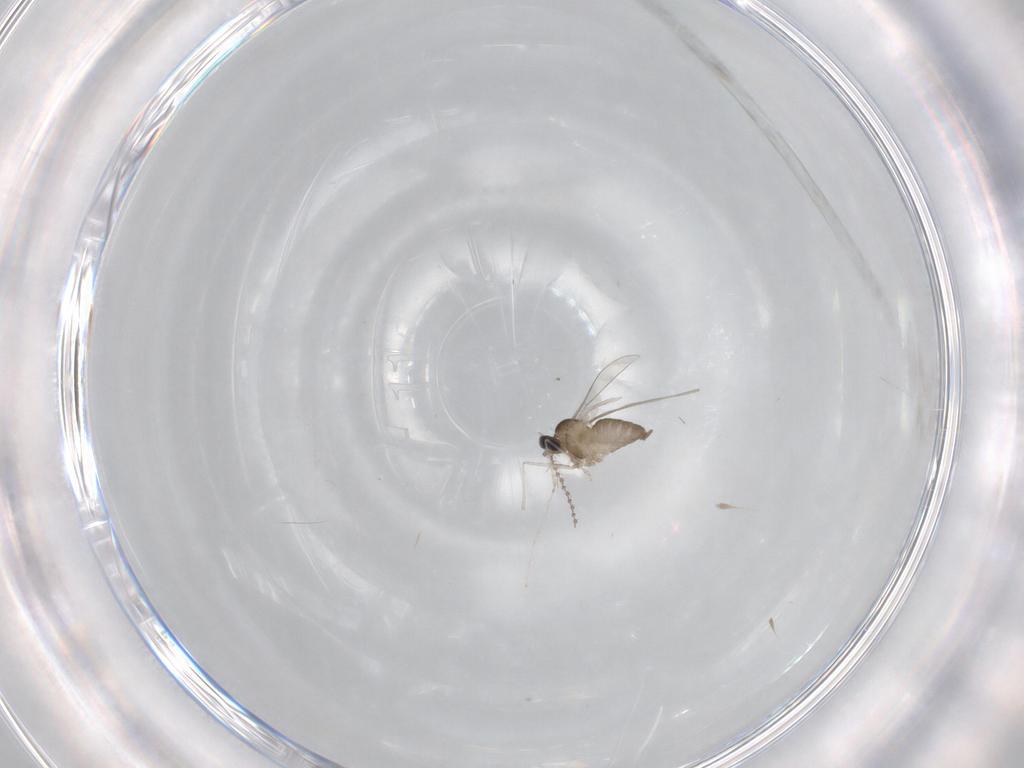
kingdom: Animalia
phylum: Arthropoda
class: Insecta
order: Diptera
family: Cecidomyiidae
